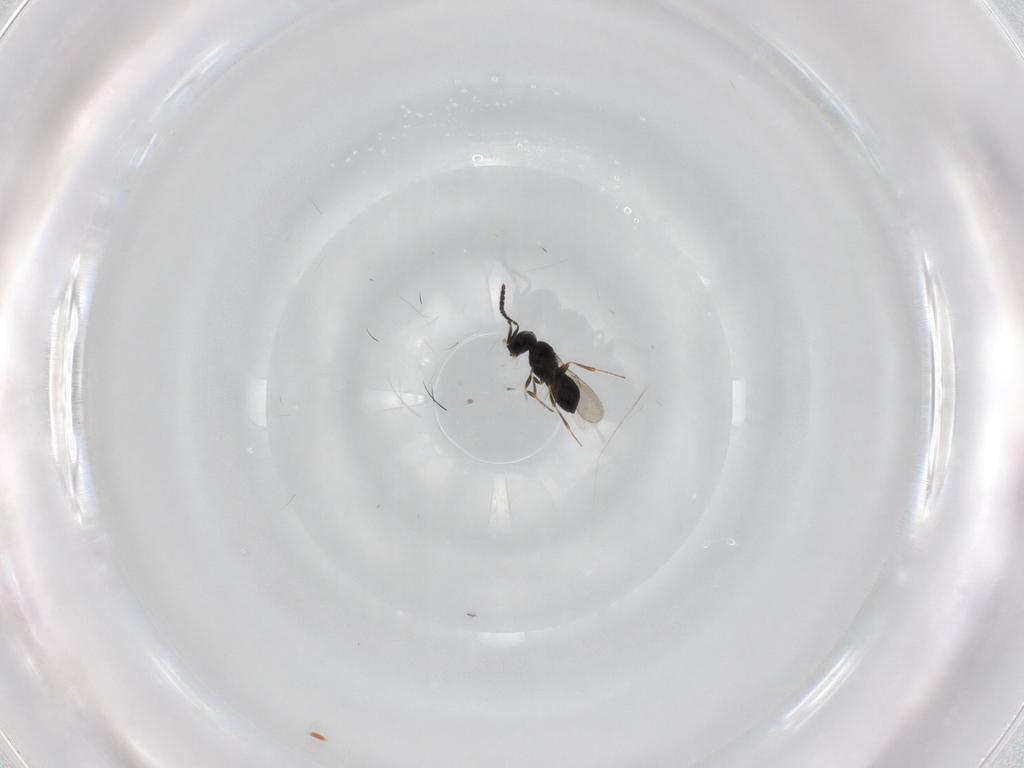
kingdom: Animalia
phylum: Arthropoda
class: Insecta
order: Hymenoptera
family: Scelionidae
